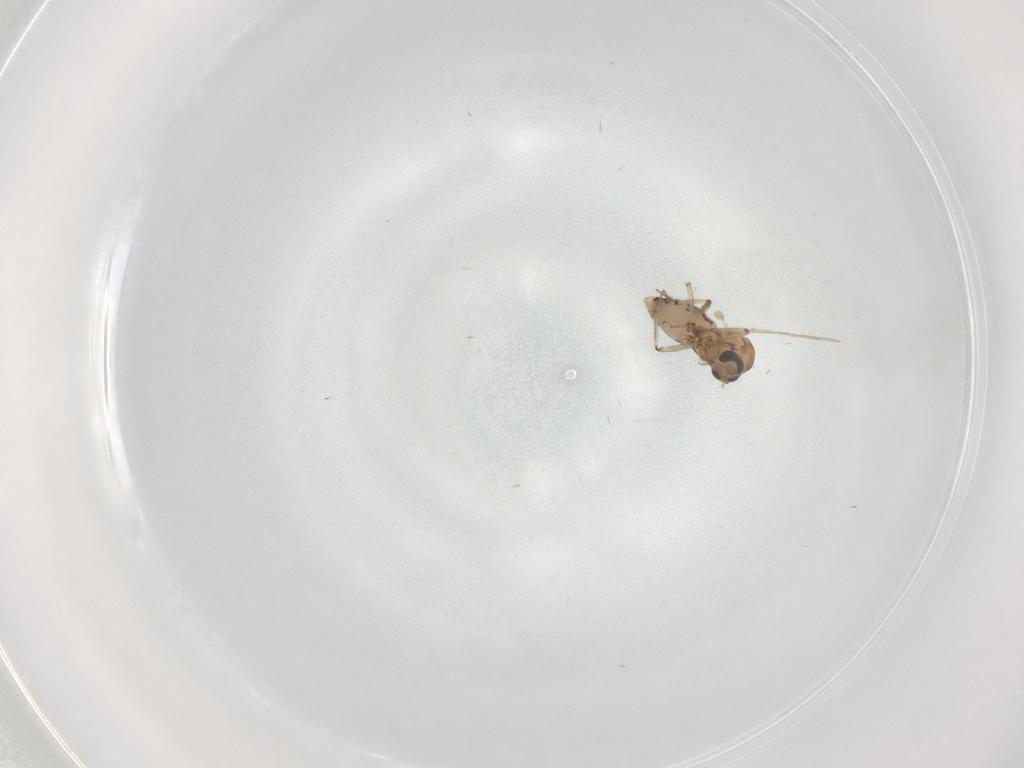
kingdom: Animalia
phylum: Arthropoda
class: Insecta
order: Diptera
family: Ceratopogonidae
